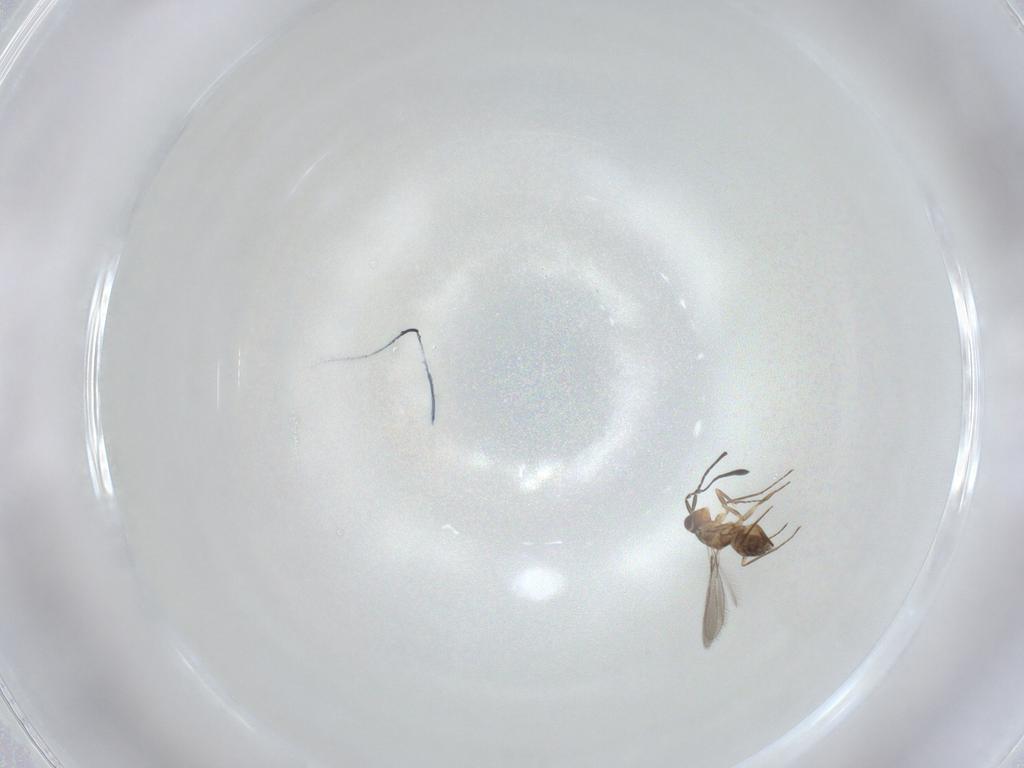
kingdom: Animalia
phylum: Arthropoda
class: Insecta
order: Hymenoptera
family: Mymaridae
